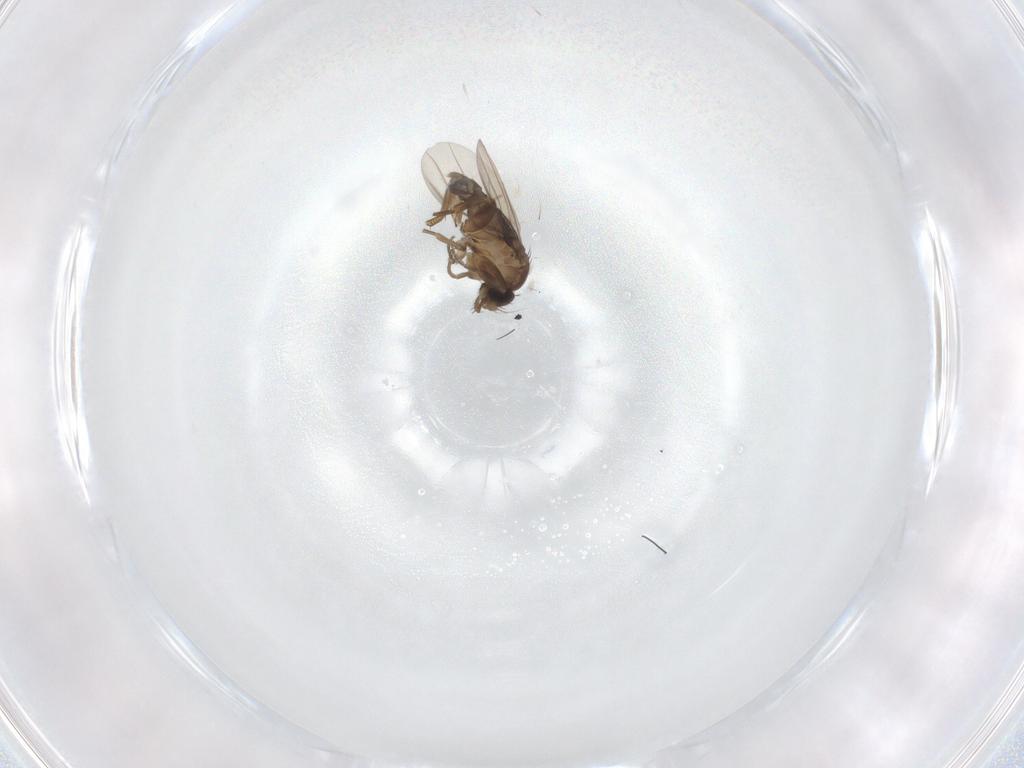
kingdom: Animalia
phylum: Arthropoda
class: Insecta
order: Diptera
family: Phoridae
